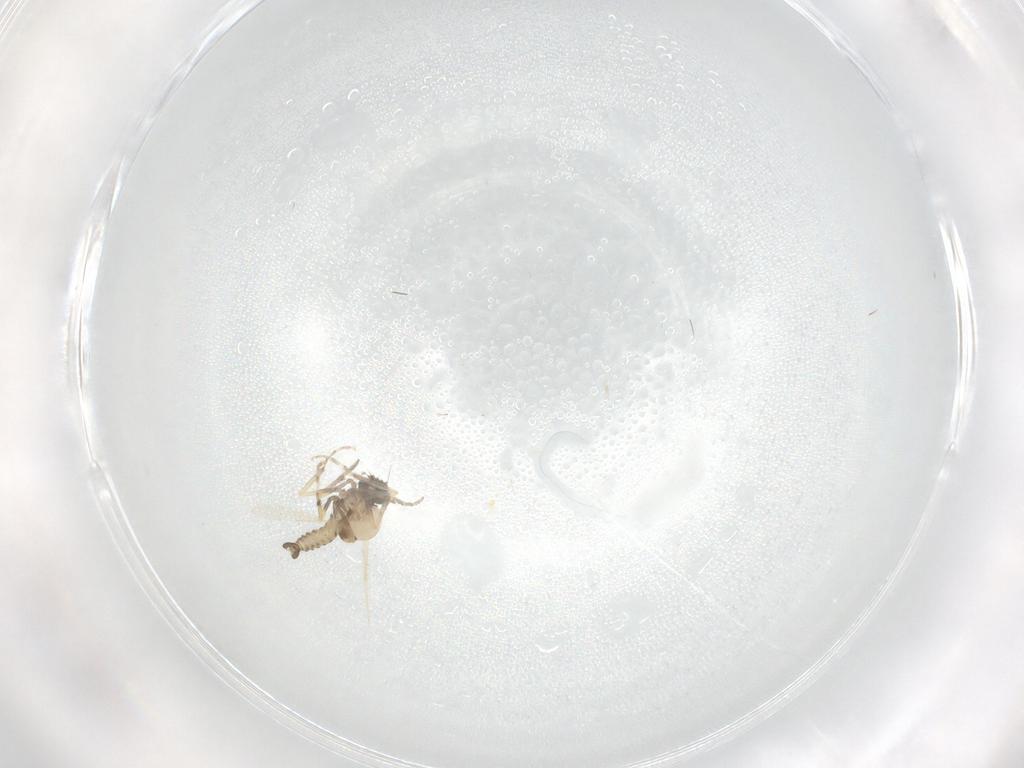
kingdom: Animalia
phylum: Arthropoda
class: Insecta
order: Diptera
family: Ceratopogonidae
